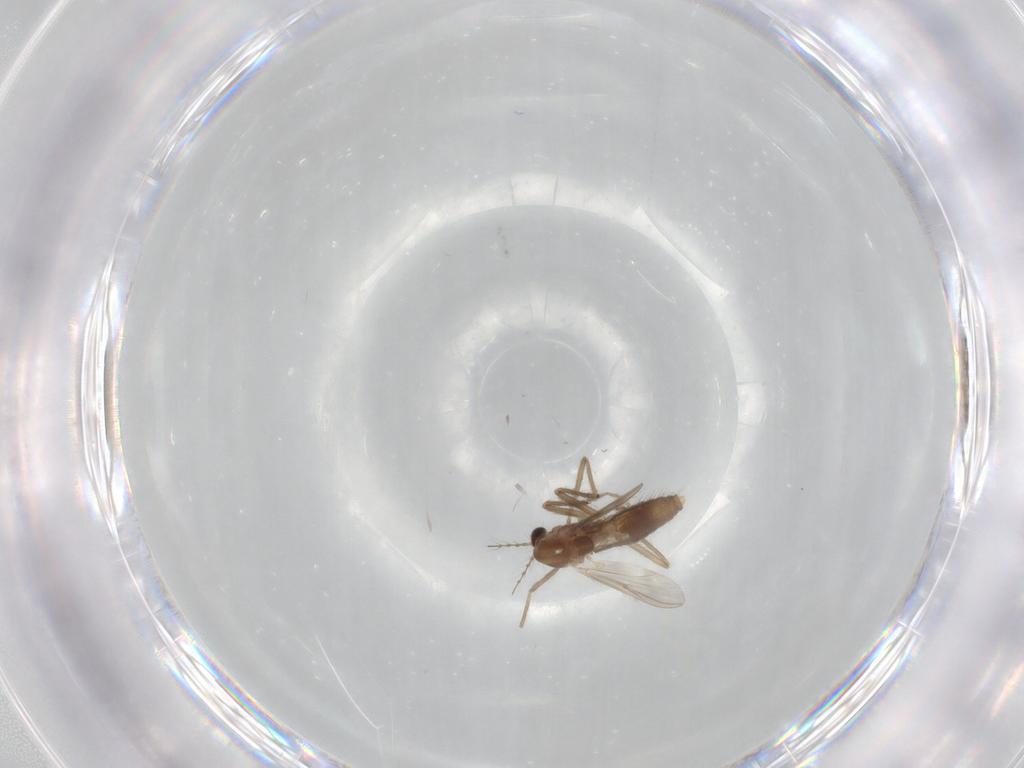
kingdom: Animalia
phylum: Arthropoda
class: Insecta
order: Diptera
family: Chironomidae
